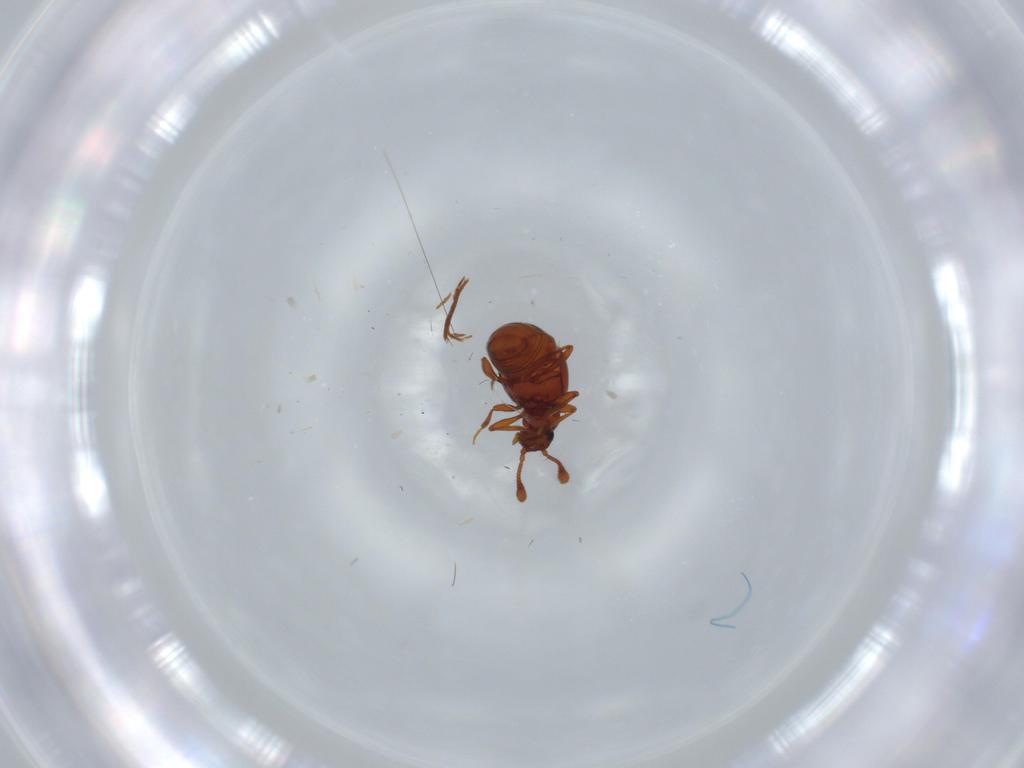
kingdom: Animalia
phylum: Arthropoda
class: Insecta
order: Coleoptera
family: Staphylinidae
